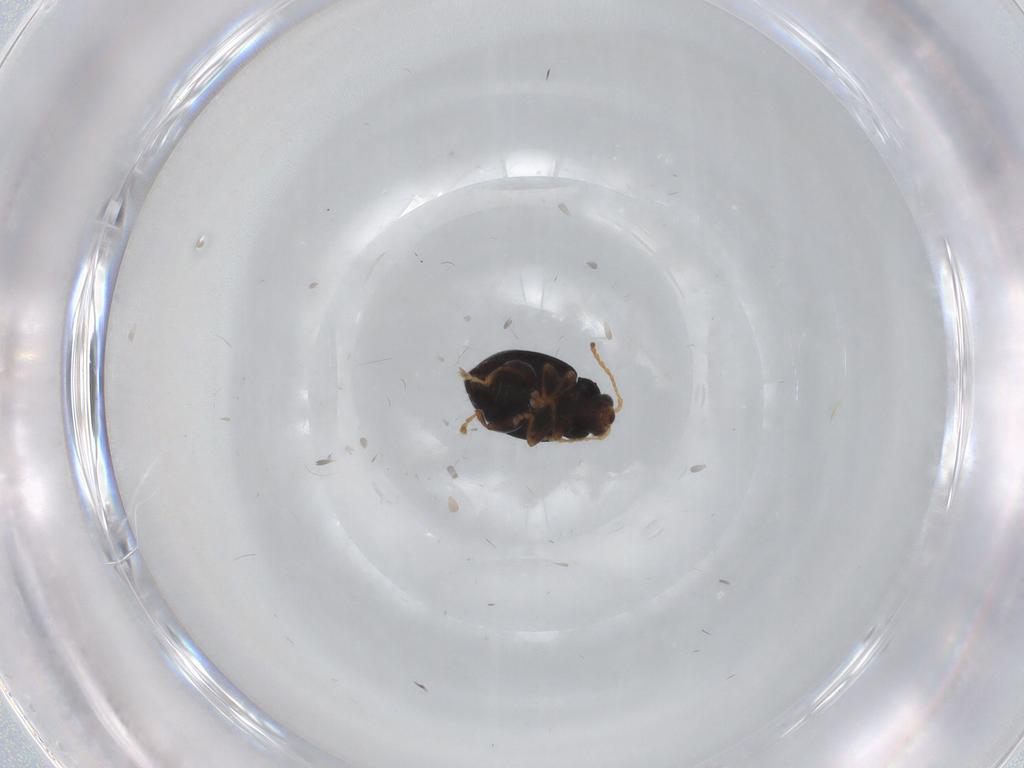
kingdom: Animalia
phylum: Arthropoda
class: Insecta
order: Coleoptera
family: Chrysomelidae
